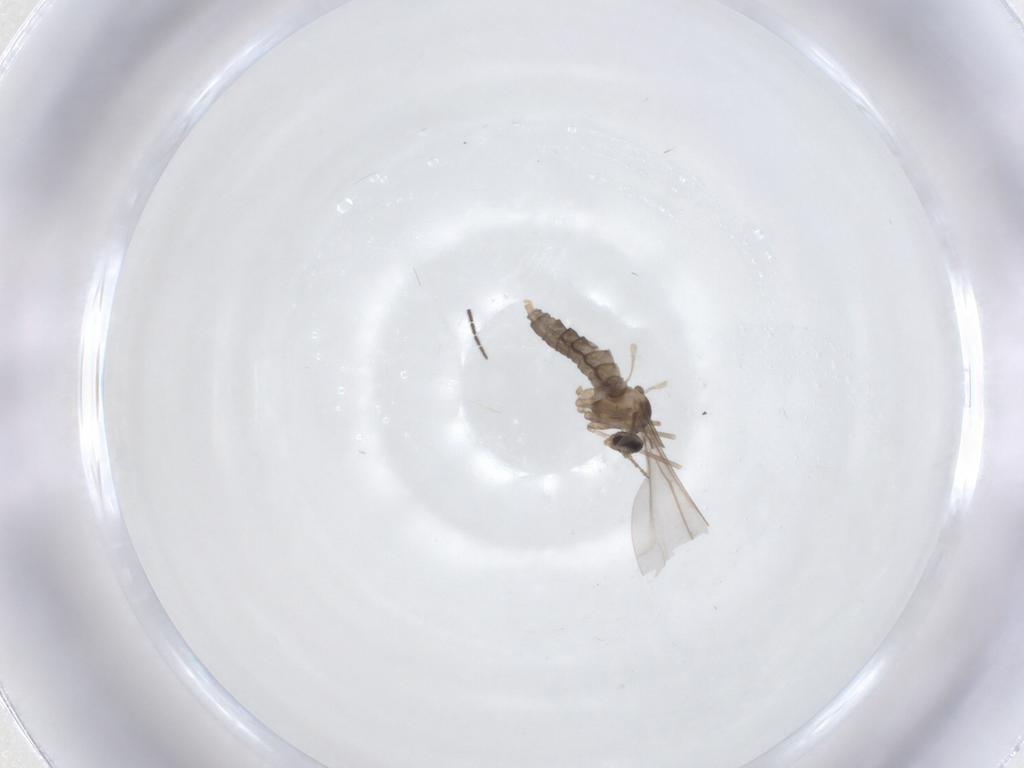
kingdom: Animalia
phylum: Arthropoda
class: Insecta
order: Diptera
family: Cecidomyiidae
